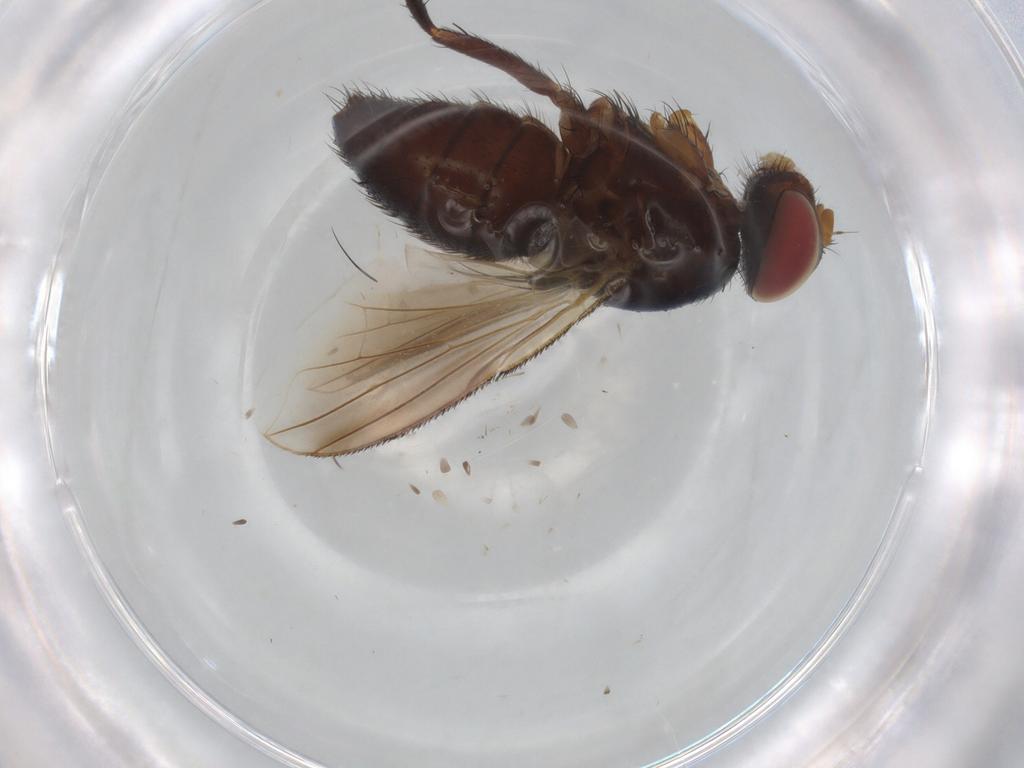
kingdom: Animalia
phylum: Arthropoda
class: Insecta
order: Diptera
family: Tachinidae
